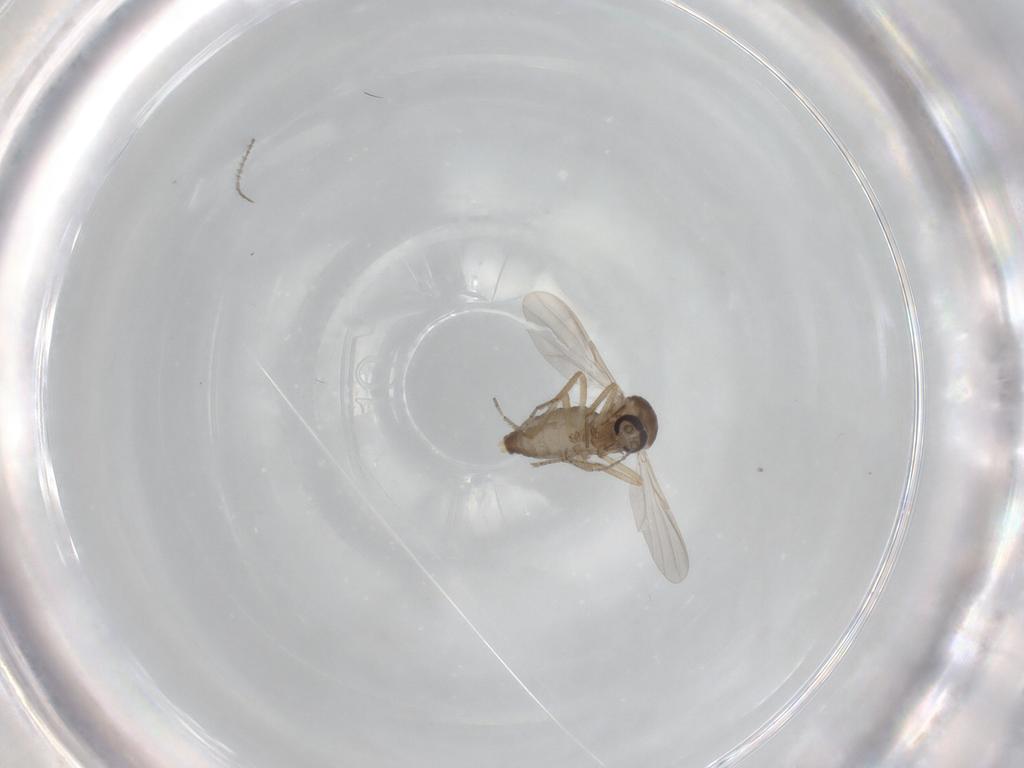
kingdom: Animalia
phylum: Arthropoda
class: Insecta
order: Diptera
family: Ceratopogonidae
